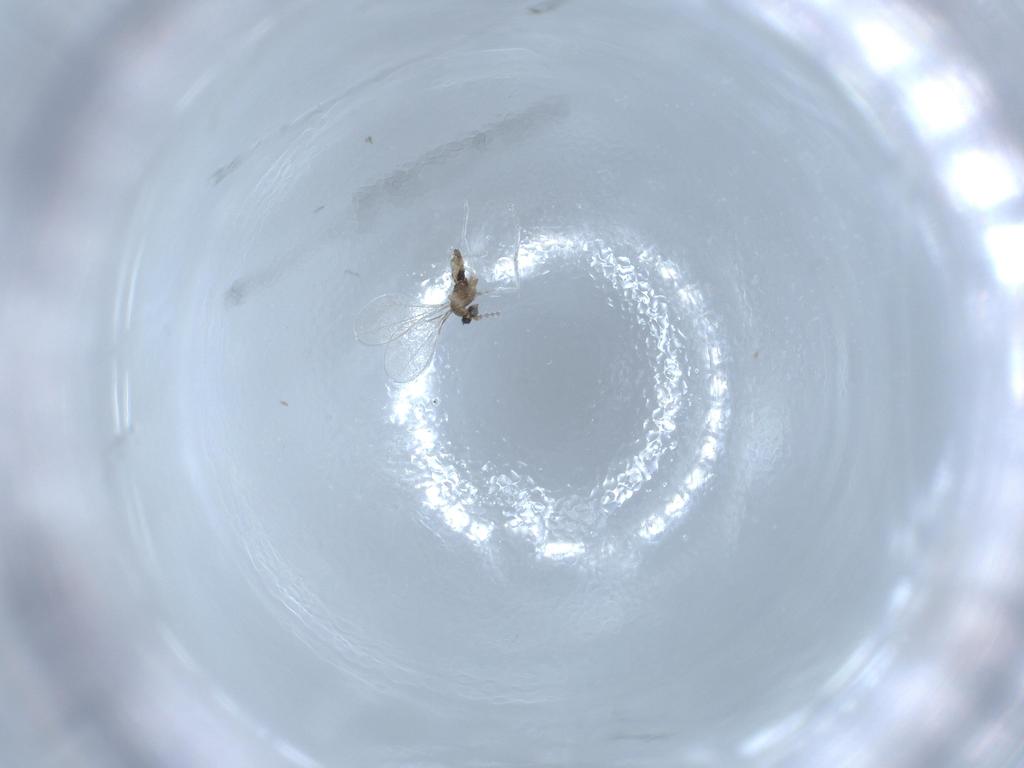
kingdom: Animalia
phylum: Arthropoda
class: Insecta
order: Diptera
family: Cecidomyiidae
